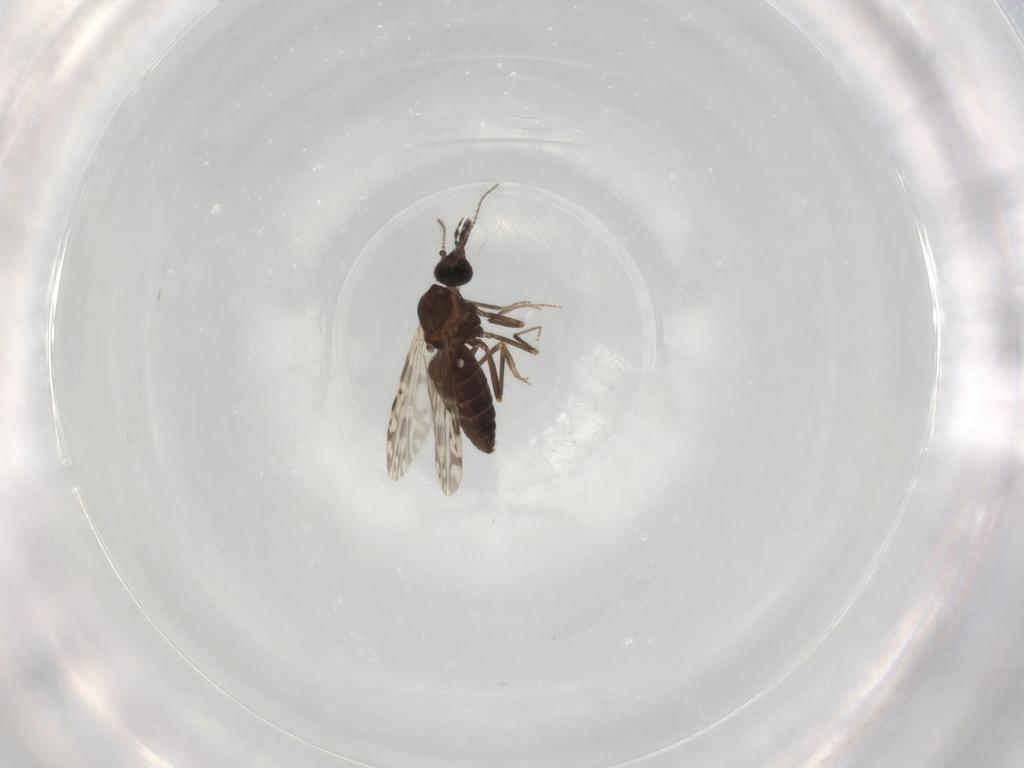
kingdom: Animalia
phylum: Arthropoda
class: Insecta
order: Diptera
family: Ceratopogonidae
